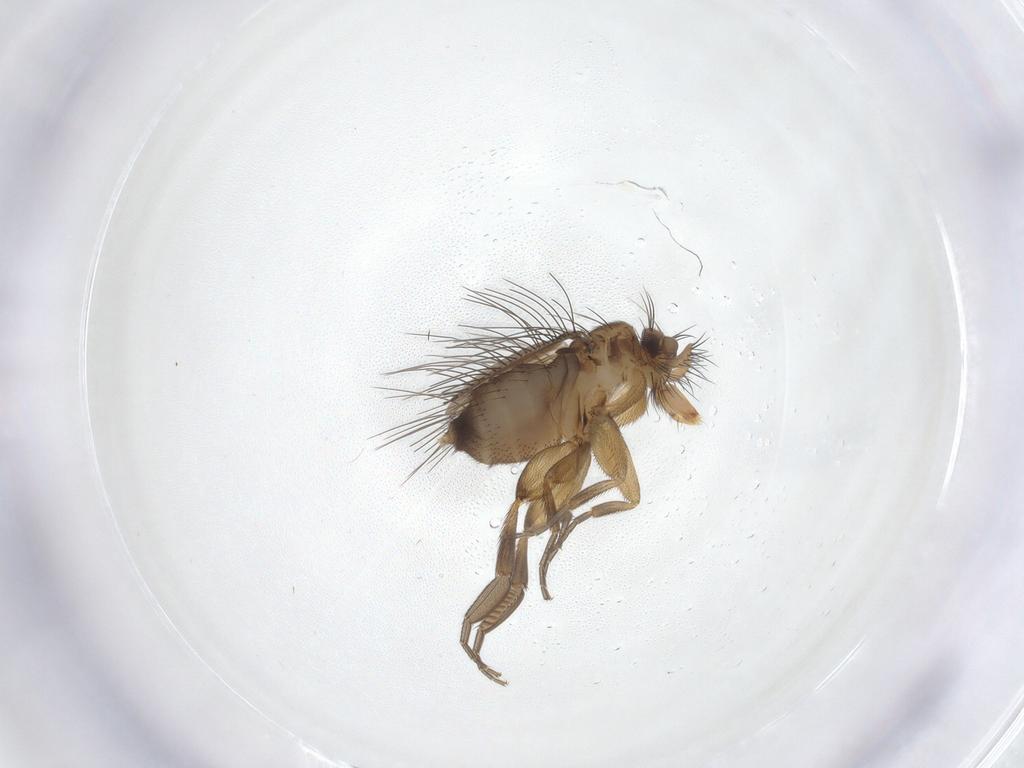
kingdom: Animalia
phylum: Arthropoda
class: Insecta
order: Diptera
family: Phoridae
